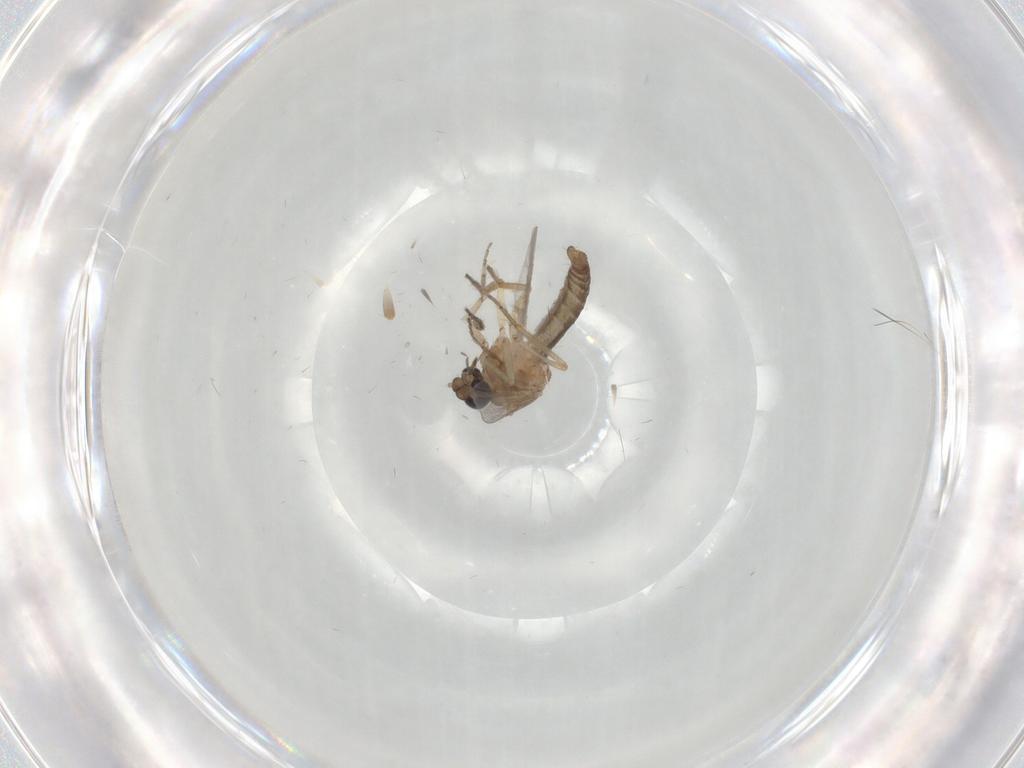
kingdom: Animalia
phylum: Arthropoda
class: Insecta
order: Diptera
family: Ceratopogonidae
